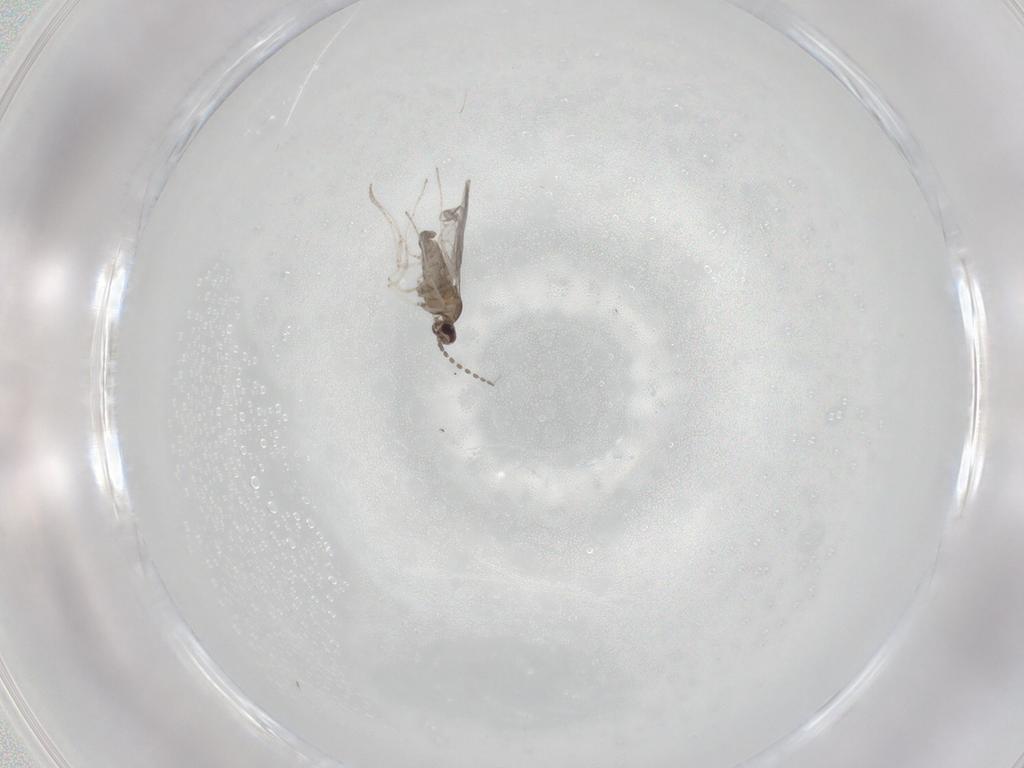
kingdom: Animalia
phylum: Arthropoda
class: Insecta
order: Diptera
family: Cecidomyiidae
